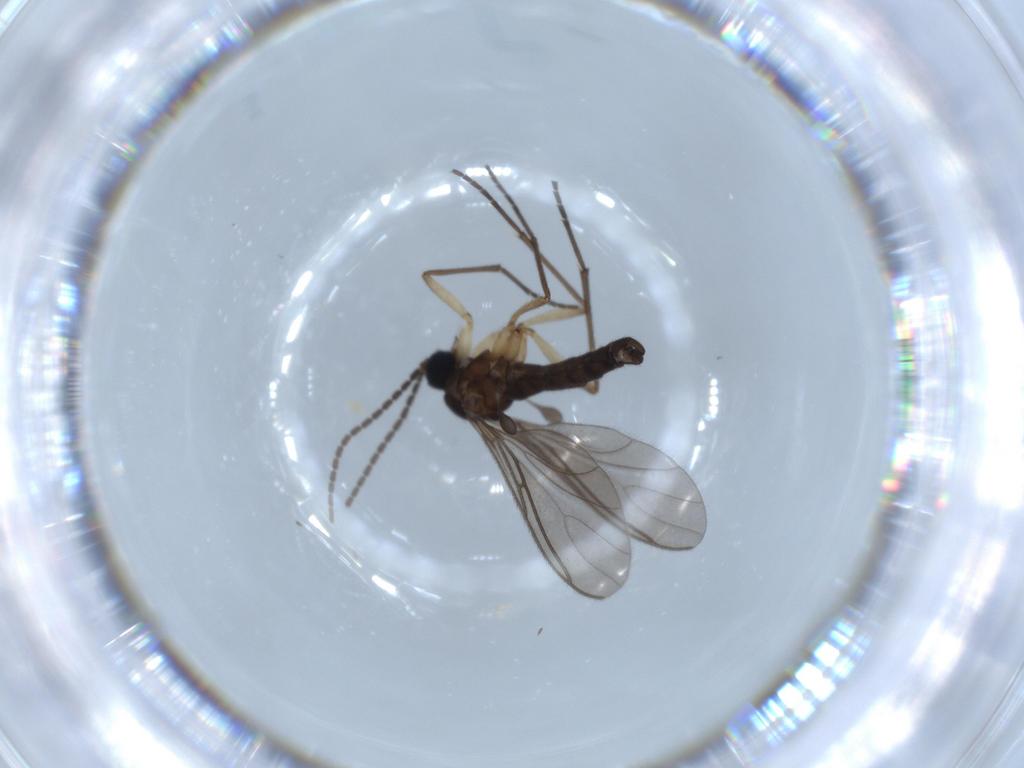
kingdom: Animalia
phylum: Arthropoda
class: Insecta
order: Diptera
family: Sciaridae
